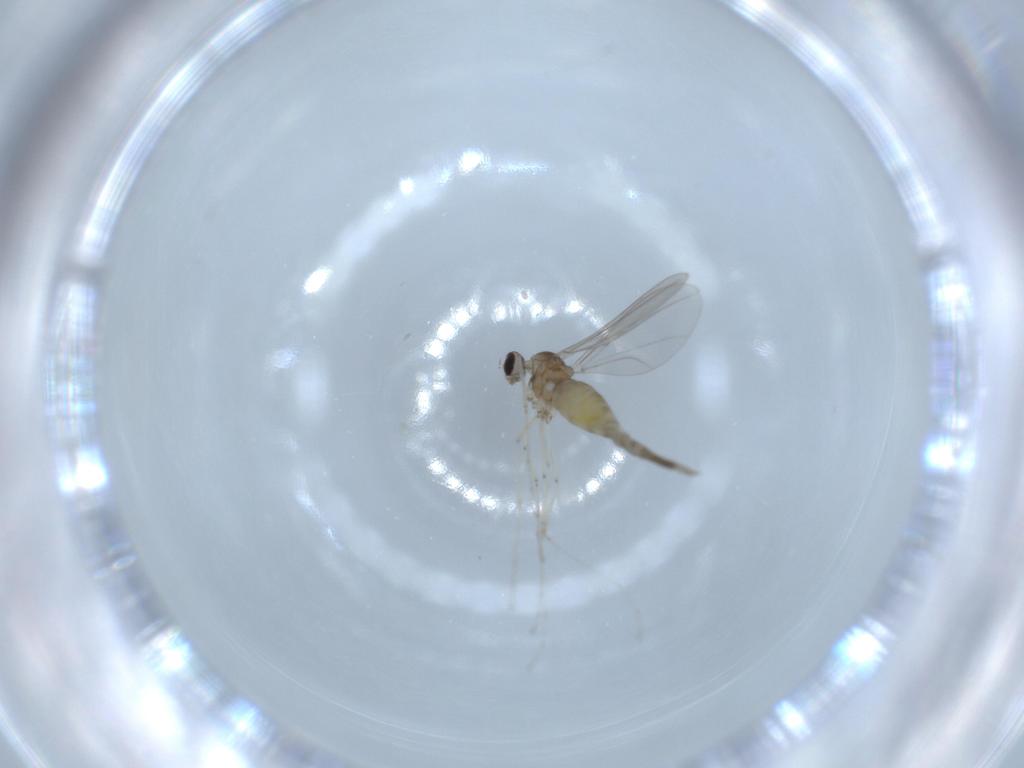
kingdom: Animalia
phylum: Arthropoda
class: Insecta
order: Diptera
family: Cecidomyiidae
